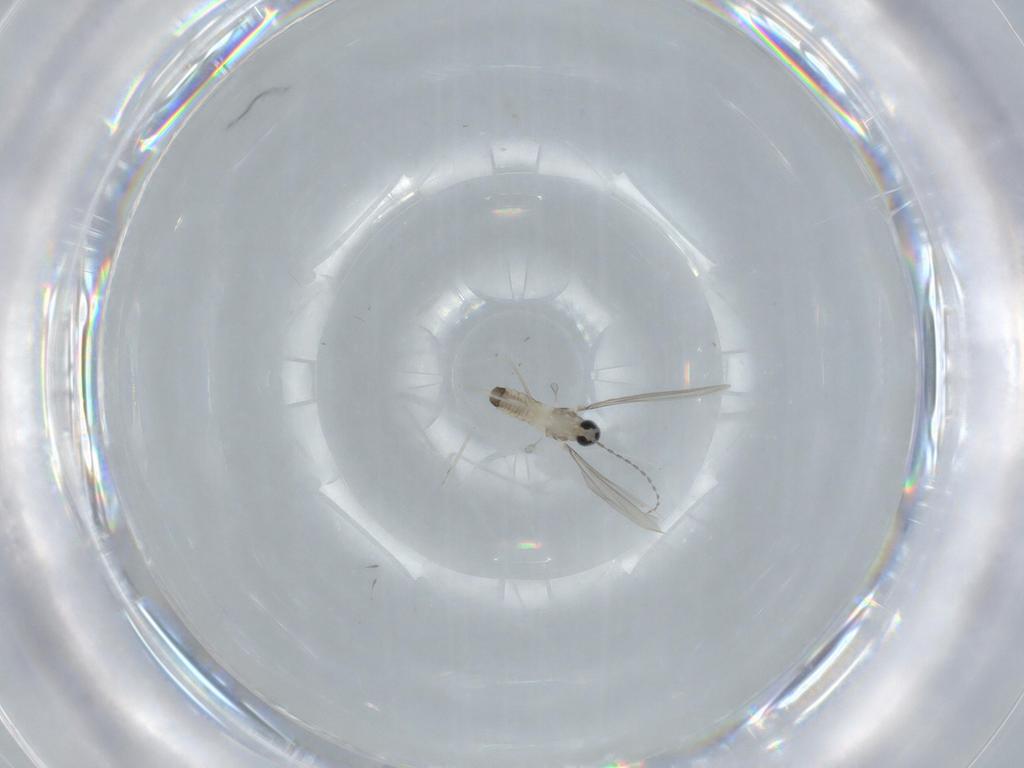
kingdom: Animalia
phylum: Arthropoda
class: Insecta
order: Diptera
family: Cecidomyiidae
